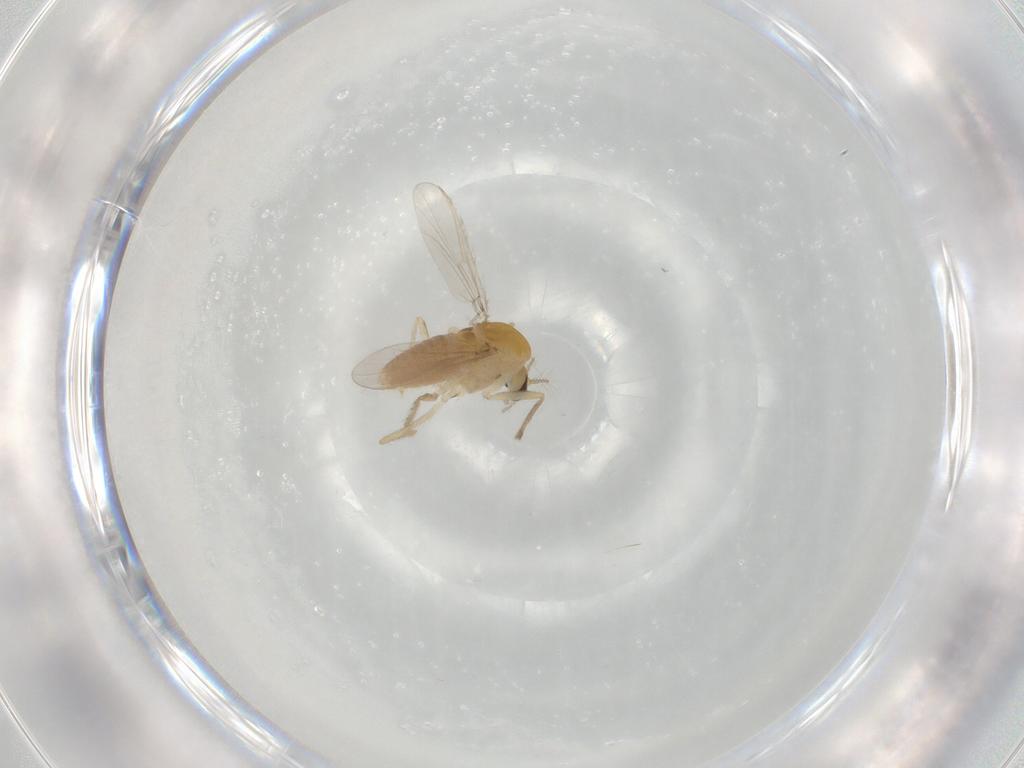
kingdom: Animalia
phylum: Arthropoda
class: Insecta
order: Diptera
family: Chironomidae
